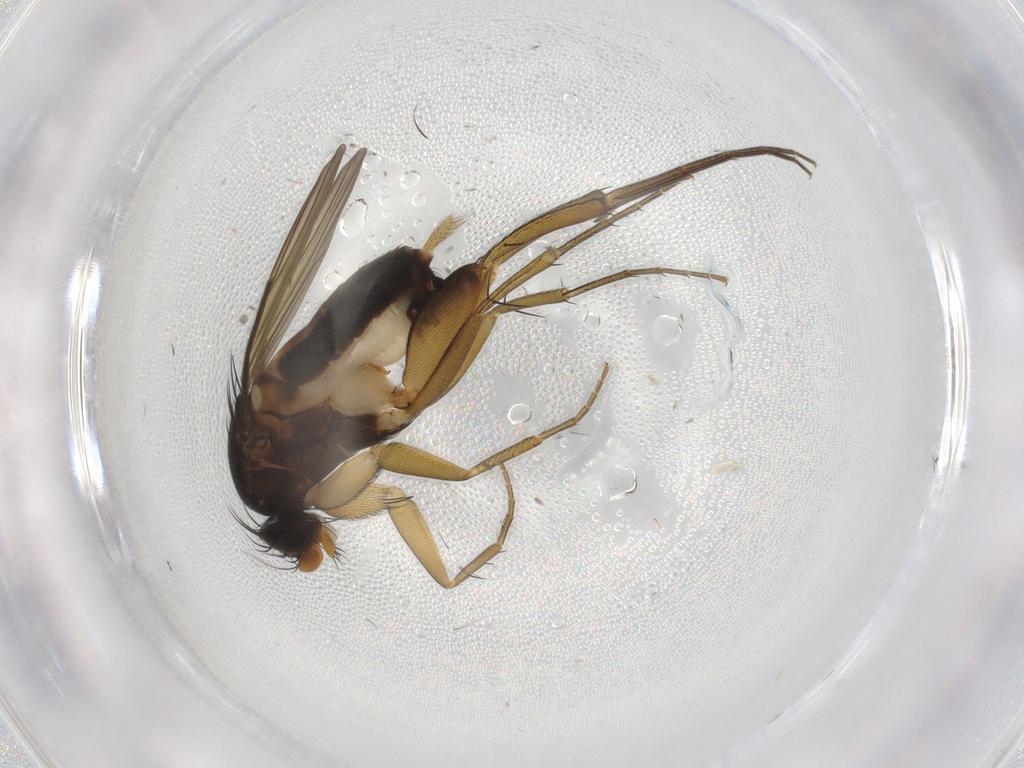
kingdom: Animalia
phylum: Arthropoda
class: Insecta
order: Diptera
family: Phoridae
